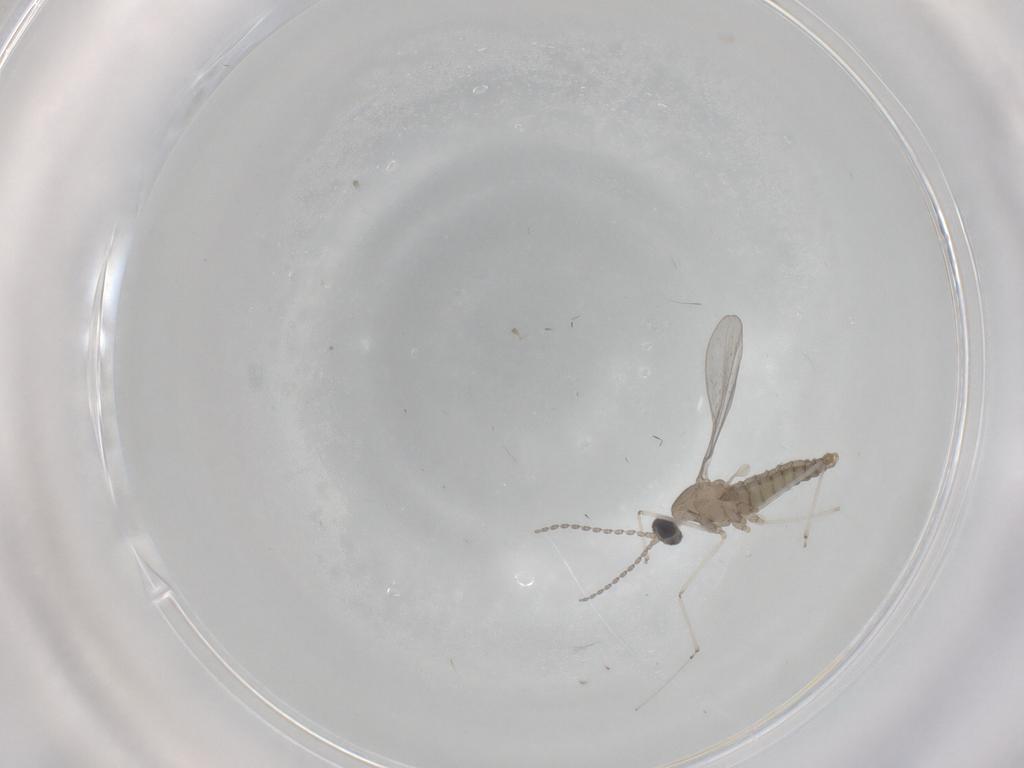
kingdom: Animalia
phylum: Arthropoda
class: Insecta
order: Diptera
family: Cecidomyiidae
